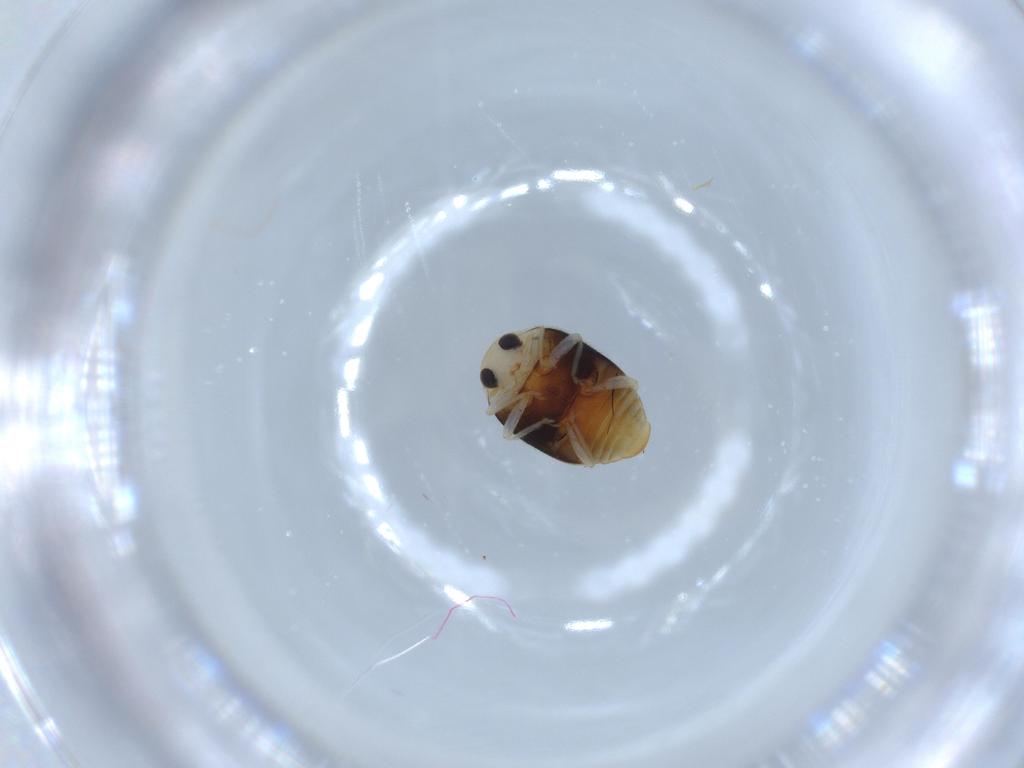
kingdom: Animalia
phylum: Arthropoda
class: Insecta
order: Coleoptera
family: Coccinellidae
